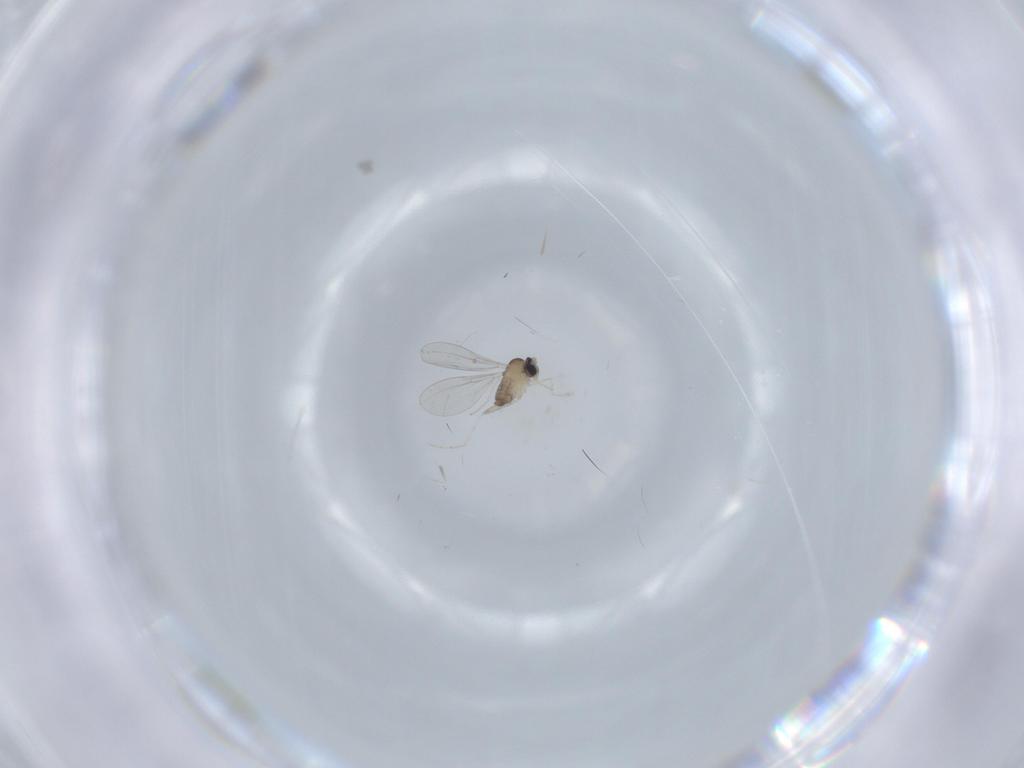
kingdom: Animalia
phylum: Arthropoda
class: Insecta
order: Diptera
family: Cecidomyiidae
